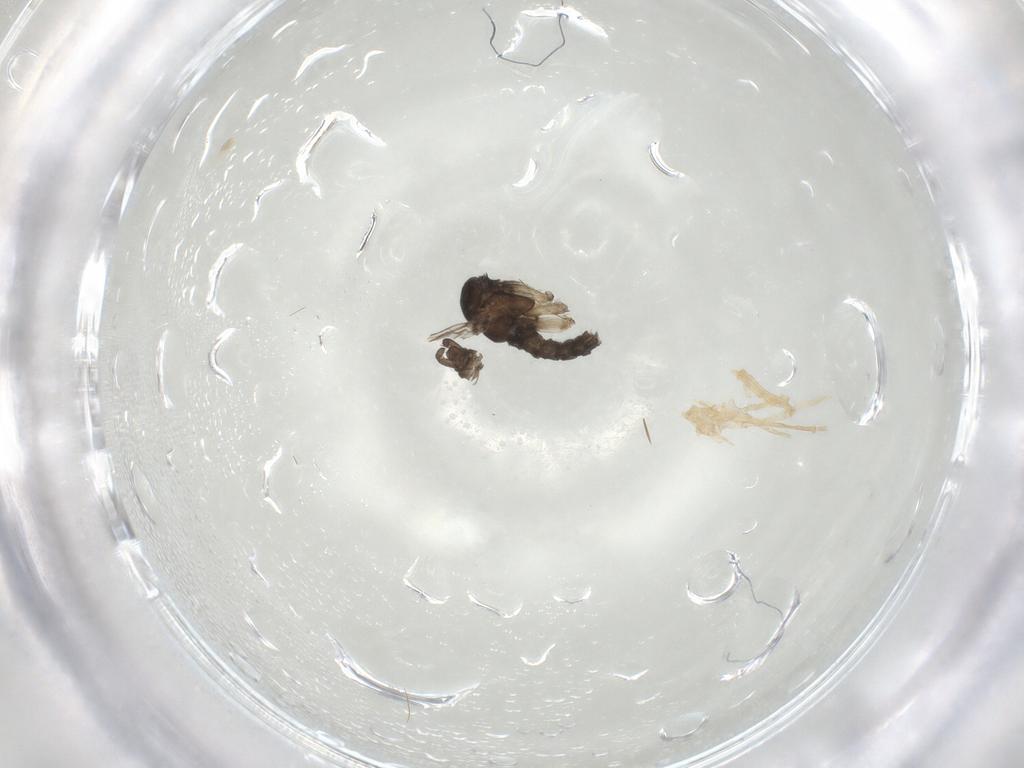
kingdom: Animalia
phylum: Arthropoda
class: Insecta
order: Diptera
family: Sciaridae
